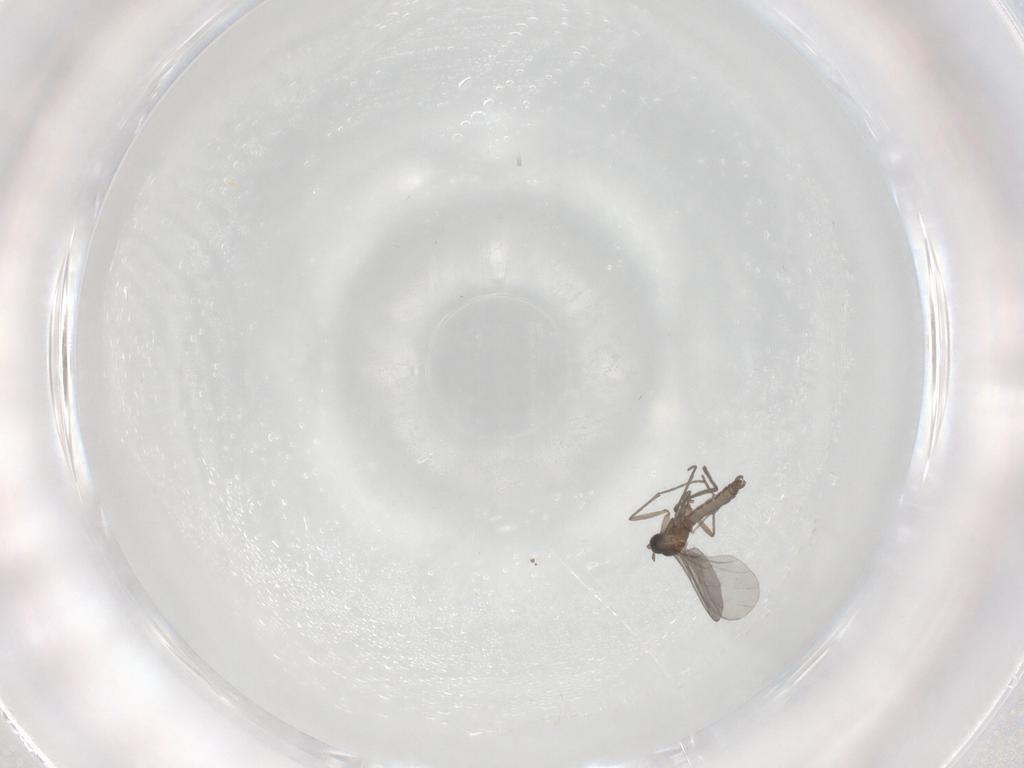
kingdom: Animalia
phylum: Arthropoda
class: Insecta
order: Diptera
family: Sciaridae
